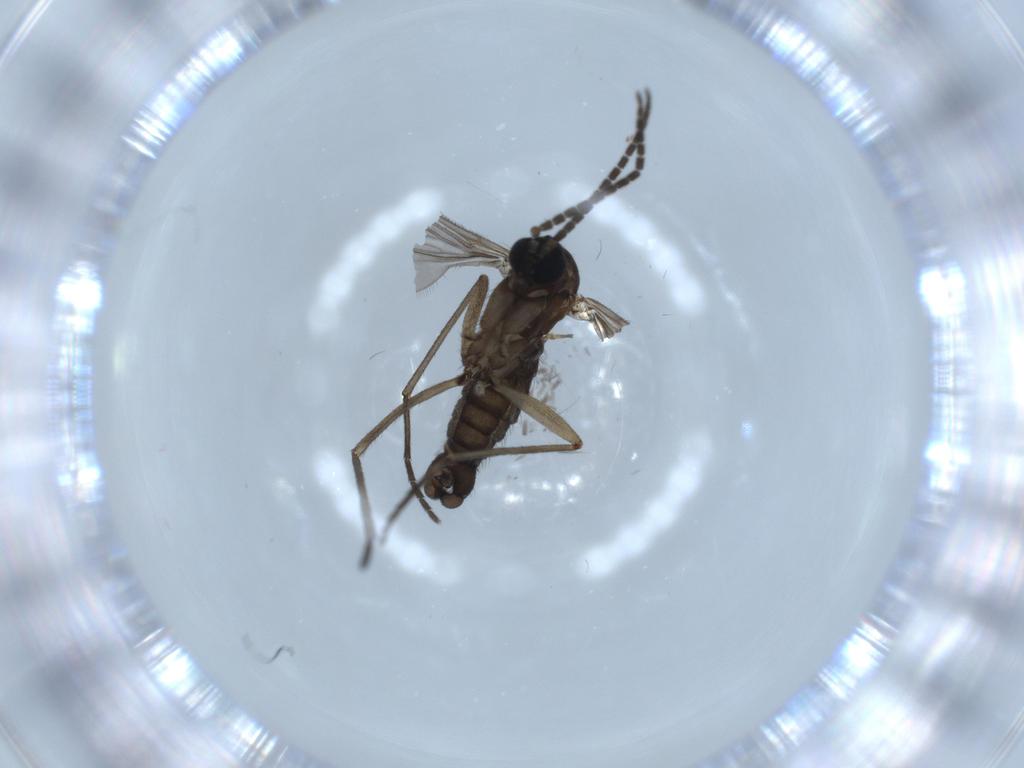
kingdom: Animalia
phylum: Arthropoda
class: Insecta
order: Diptera
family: Sciaridae
